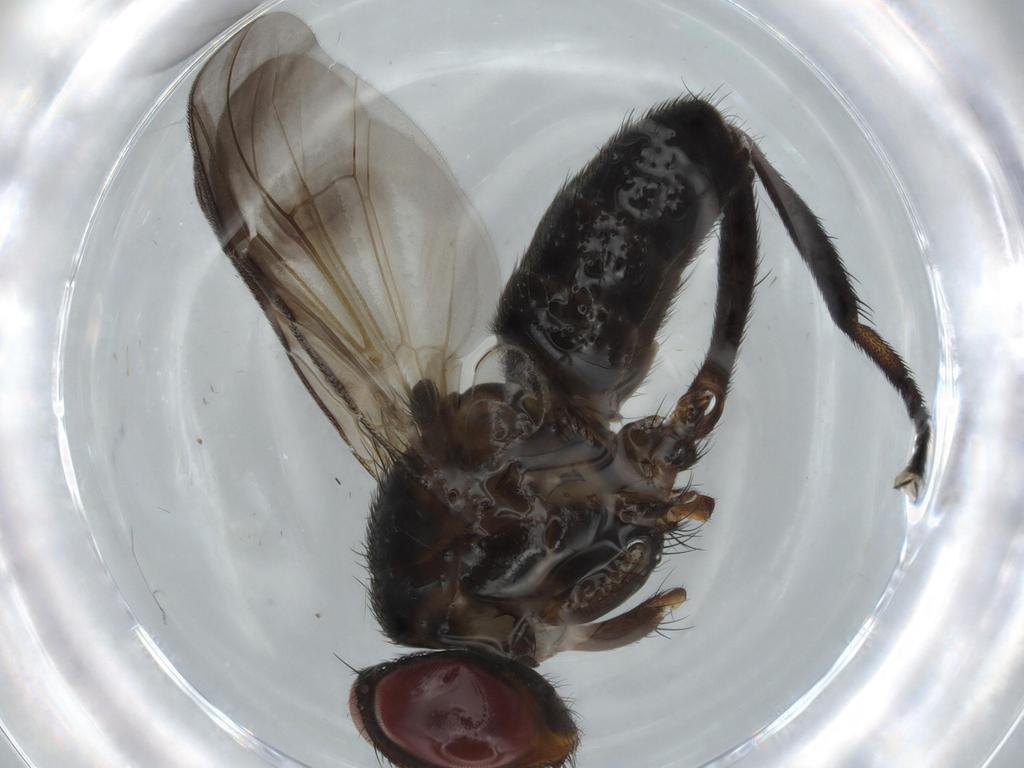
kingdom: Animalia
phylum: Arthropoda
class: Insecta
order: Diptera
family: Calliphoridae
